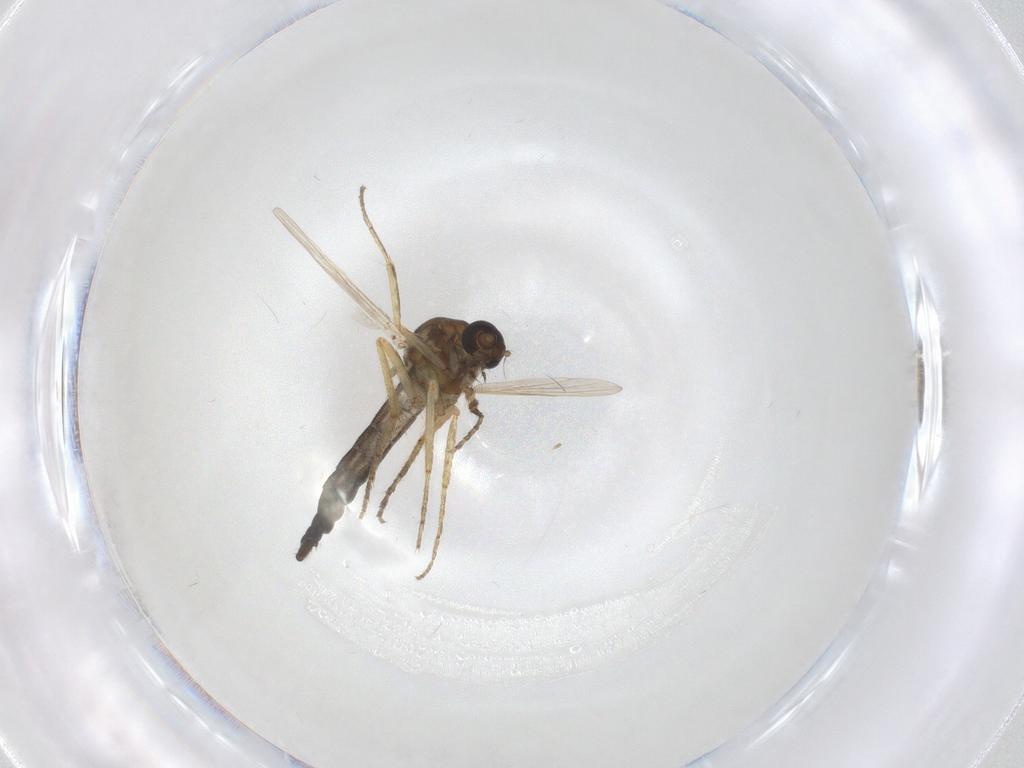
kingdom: Animalia
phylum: Arthropoda
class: Insecta
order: Diptera
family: Ceratopogonidae
